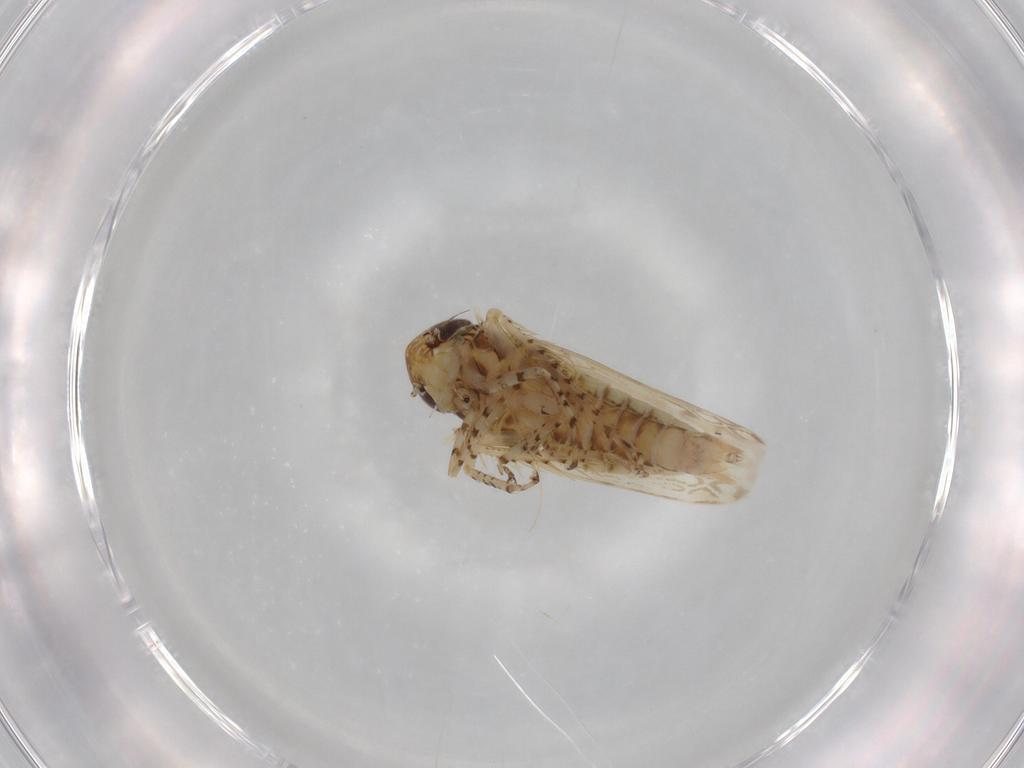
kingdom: Animalia
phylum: Arthropoda
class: Insecta
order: Hemiptera
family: Cicadellidae
